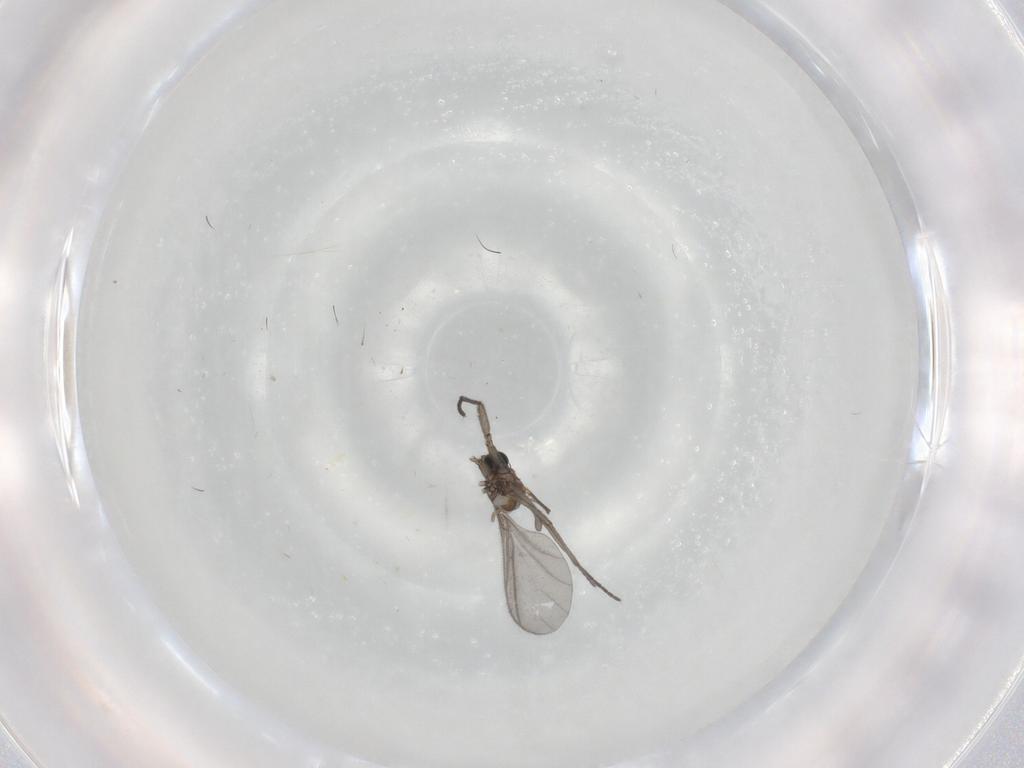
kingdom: Animalia
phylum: Arthropoda
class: Insecta
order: Diptera
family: Sciaridae
